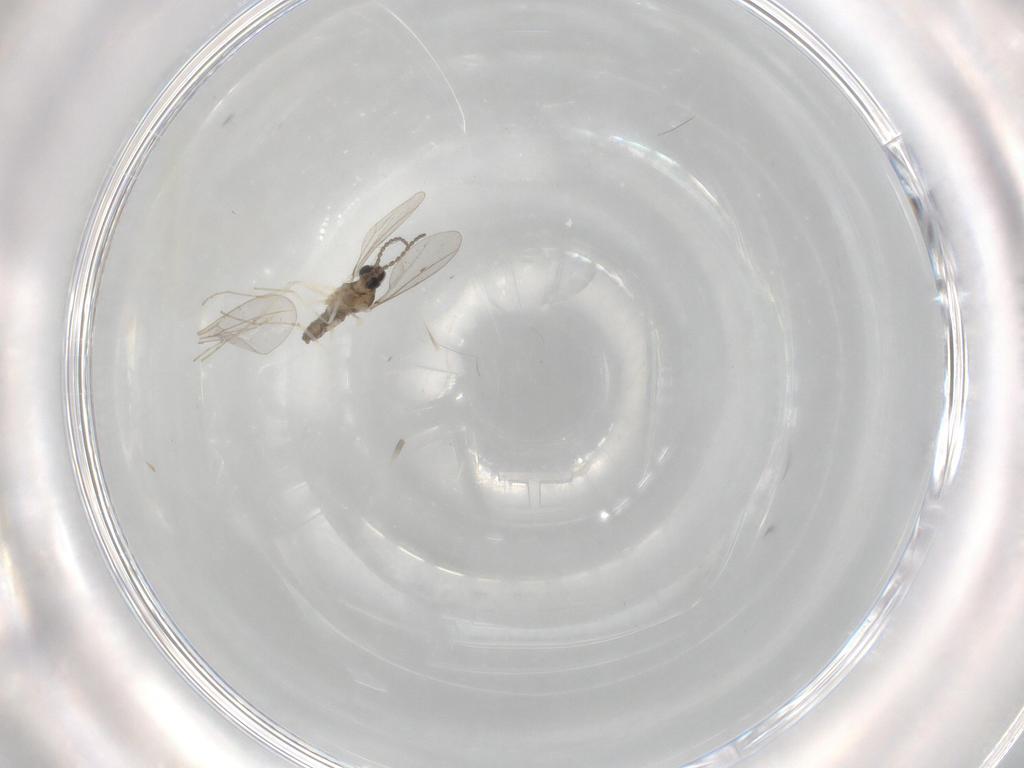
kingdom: Animalia
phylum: Arthropoda
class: Insecta
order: Diptera
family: Cecidomyiidae
